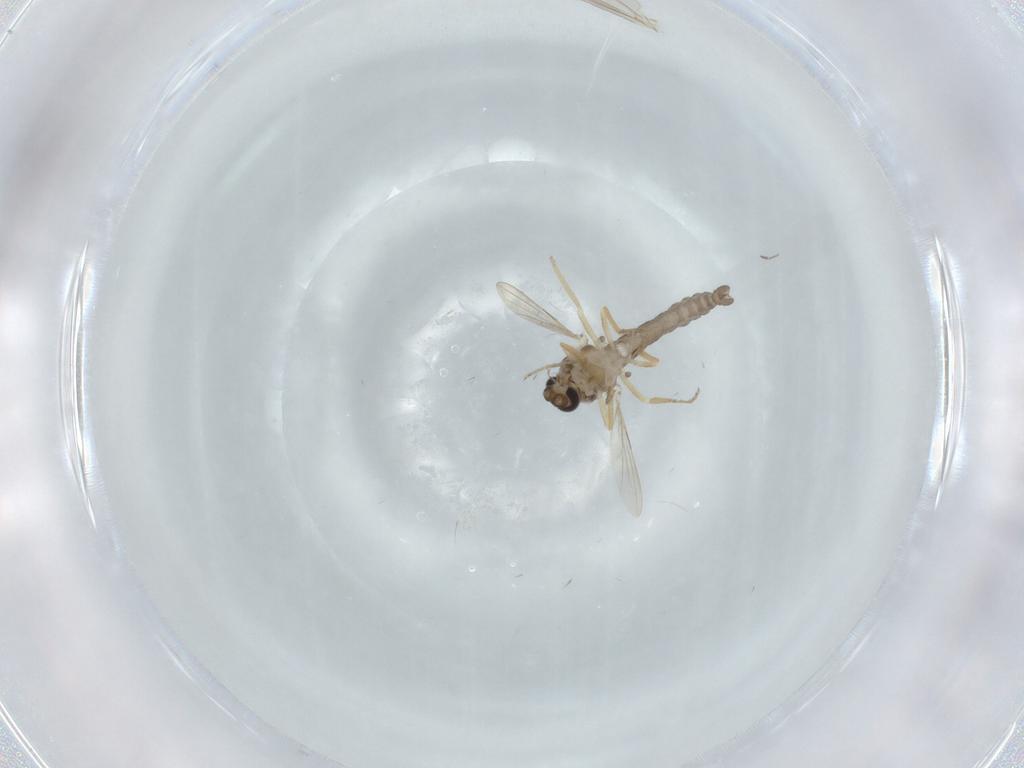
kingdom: Animalia
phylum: Arthropoda
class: Insecta
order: Diptera
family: Ceratopogonidae
